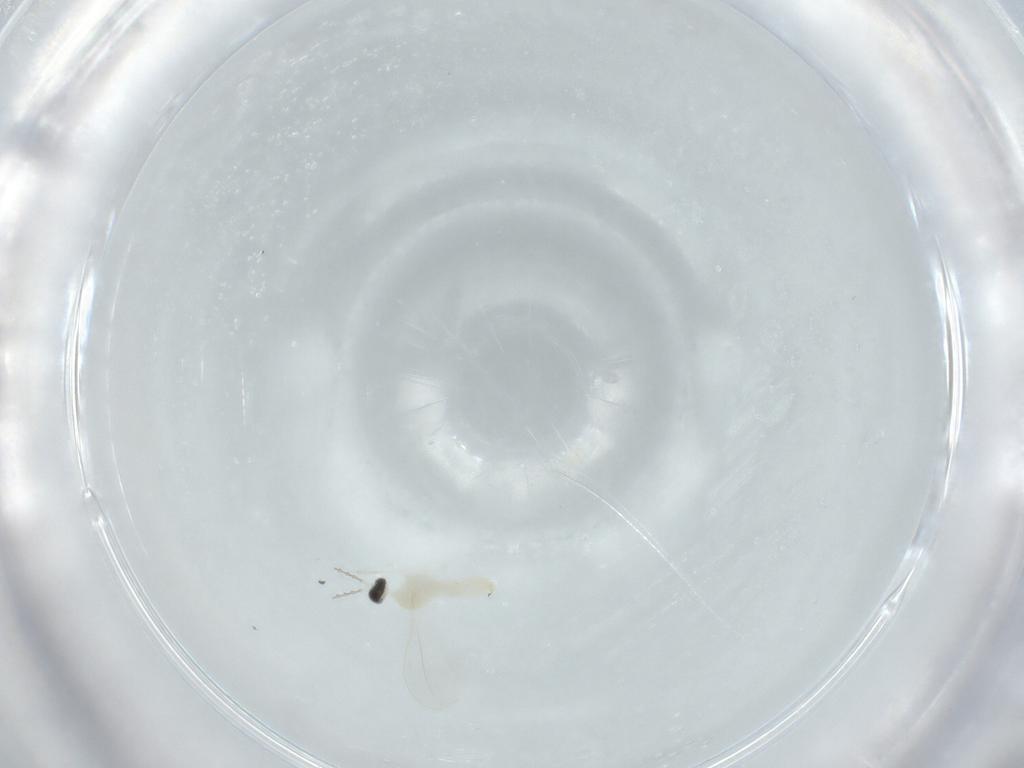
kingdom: Animalia
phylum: Arthropoda
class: Insecta
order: Diptera
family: Cecidomyiidae
